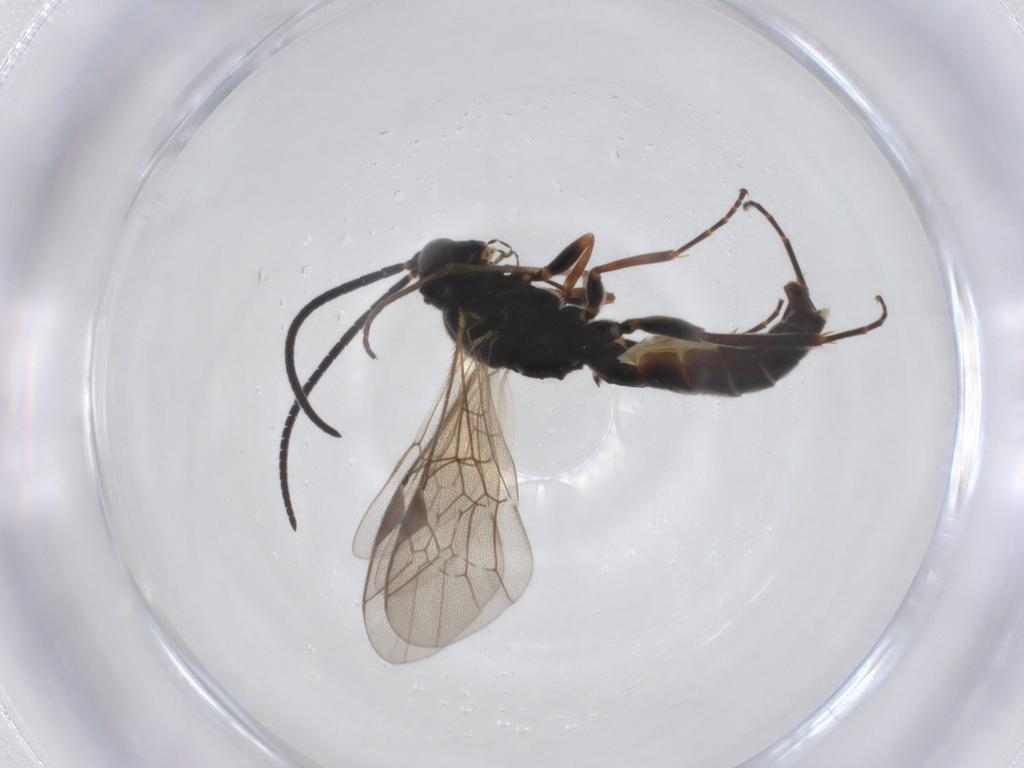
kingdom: Animalia
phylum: Arthropoda
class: Insecta
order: Hymenoptera
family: Ichneumonidae
